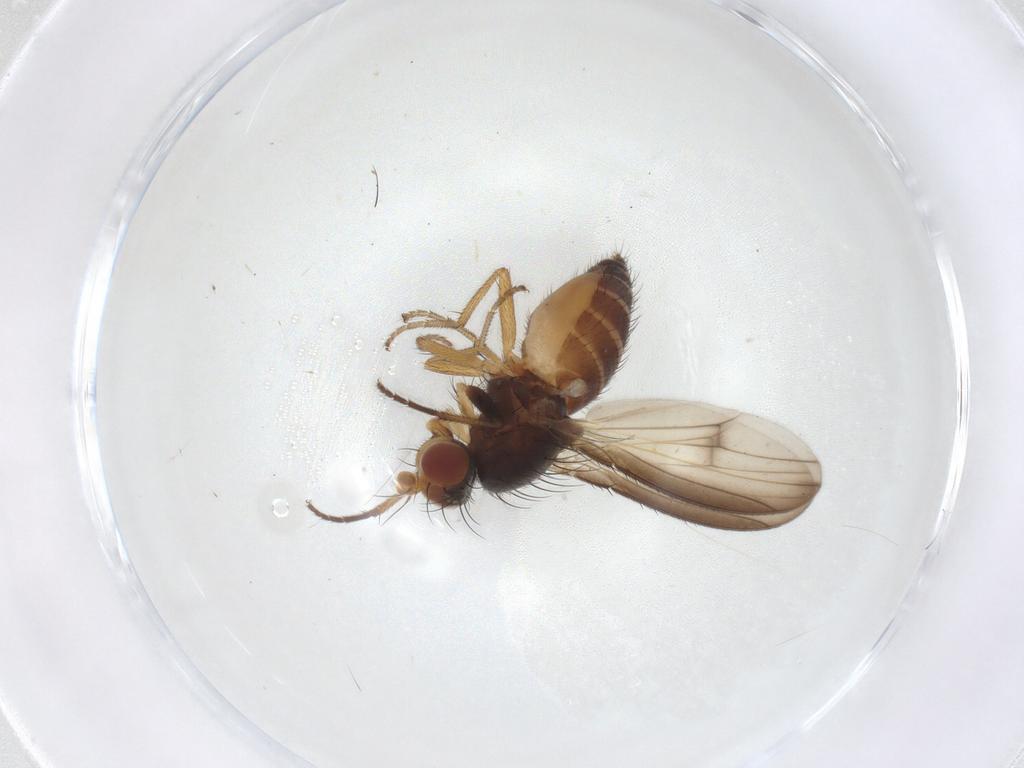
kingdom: Animalia
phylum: Arthropoda
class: Insecta
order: Diptera
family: Heleomyzidae
